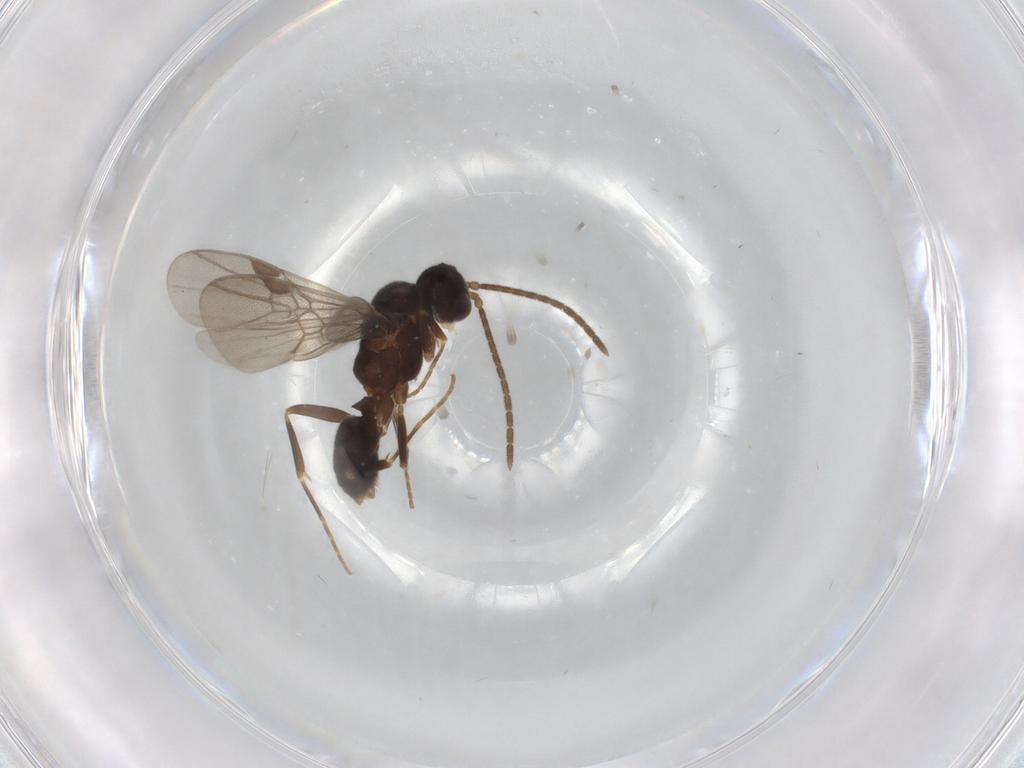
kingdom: Animalia
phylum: Arthropoda
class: Insecta
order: Hymenoptera
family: Formicidae
